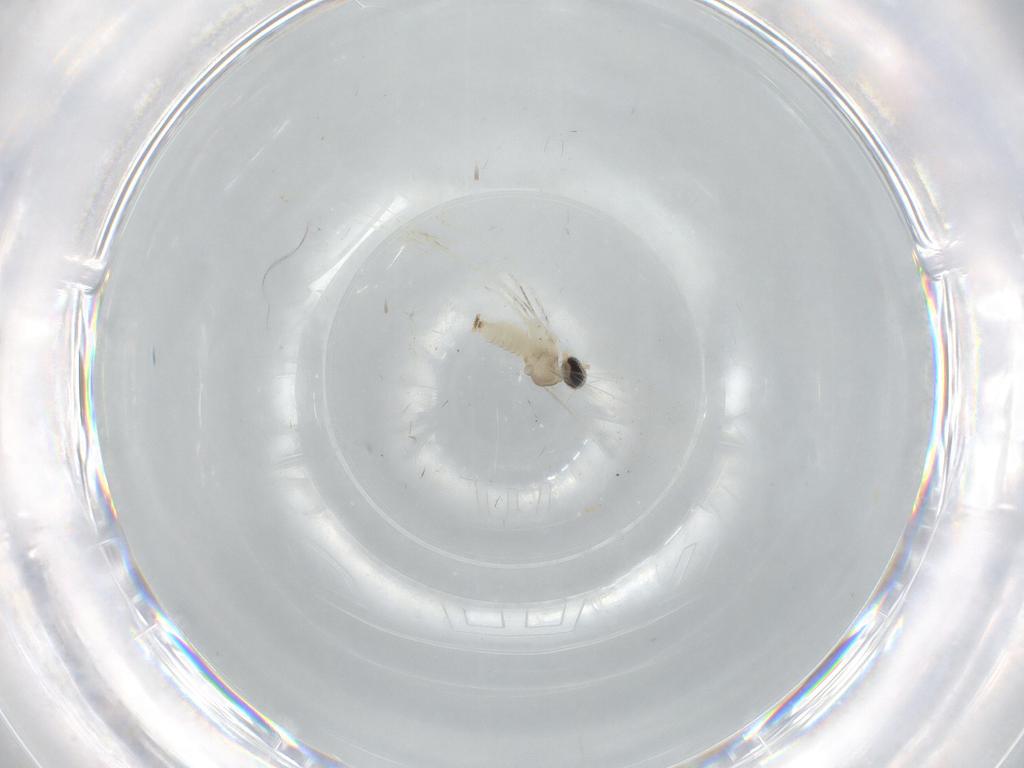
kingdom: Animalia
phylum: Arthropoda
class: Insecta
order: Diptera
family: Cecidomyiidae
